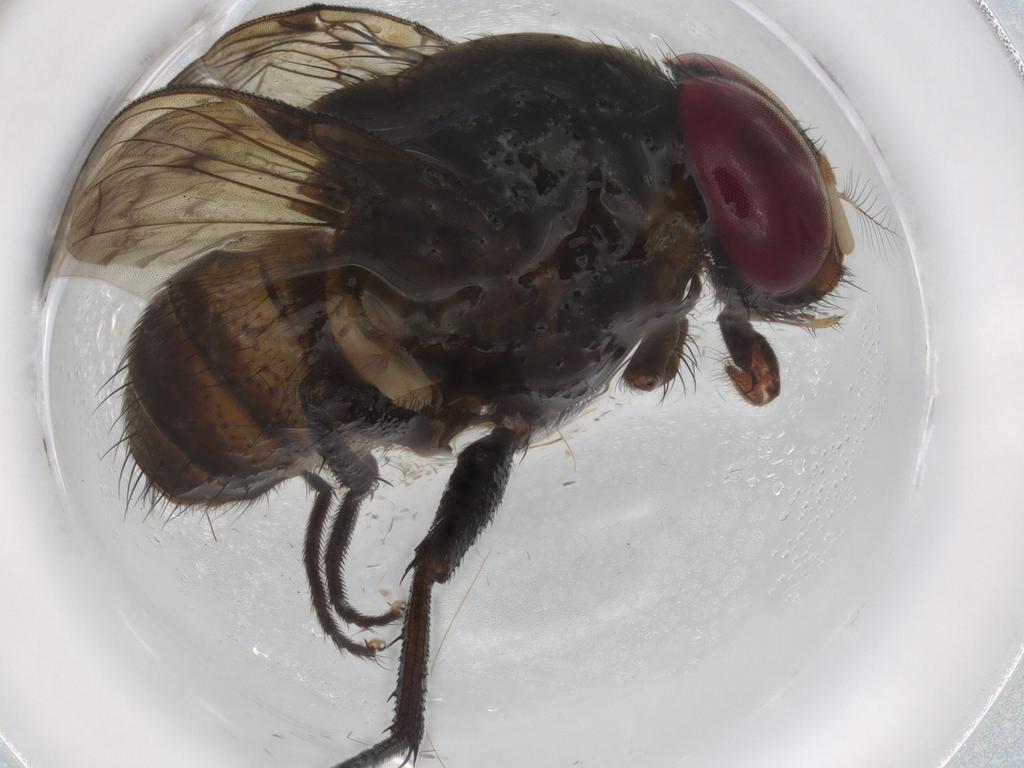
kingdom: Animalia
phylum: Arthropoda
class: Insecta
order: Diptera
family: Muscidae
